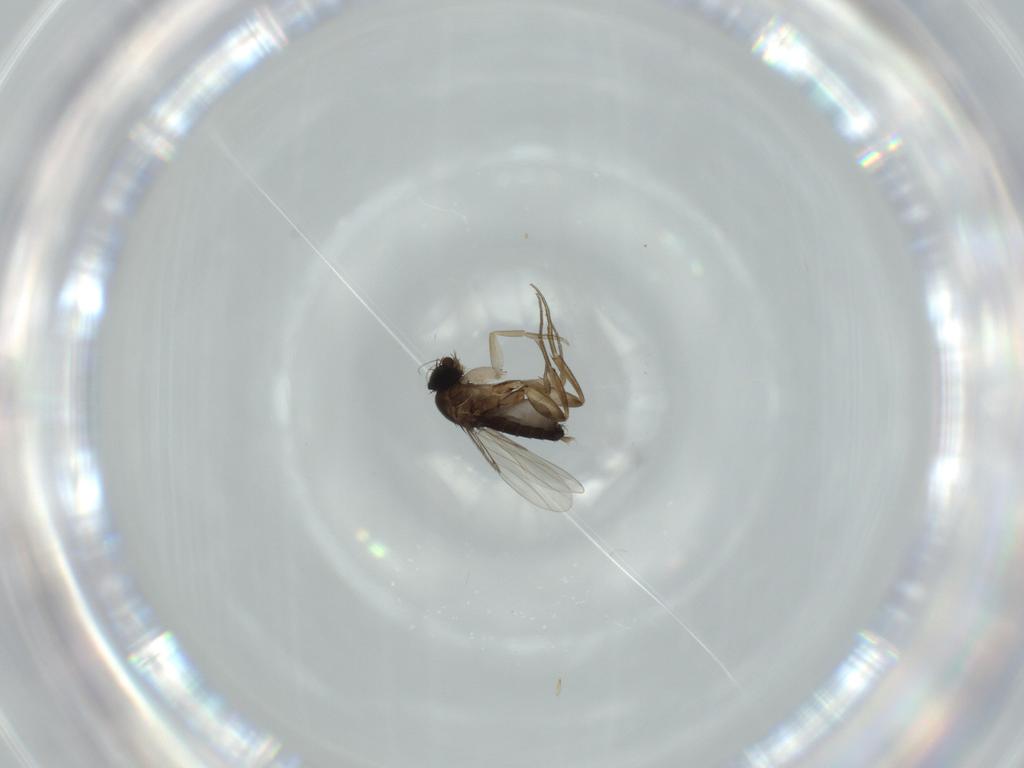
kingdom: Animalia
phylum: Arthropoda
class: Insecta
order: Diptera
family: Phoridae
